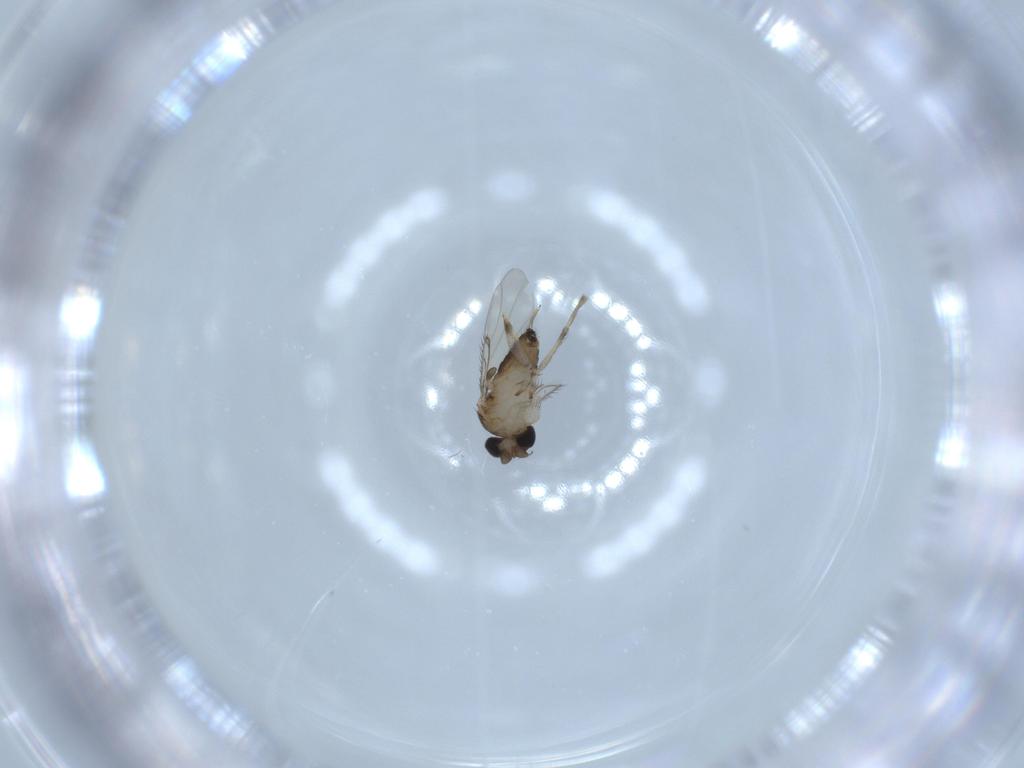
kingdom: Animalia
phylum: Arthropoda
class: Insecta
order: Diptera
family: Phoridae
